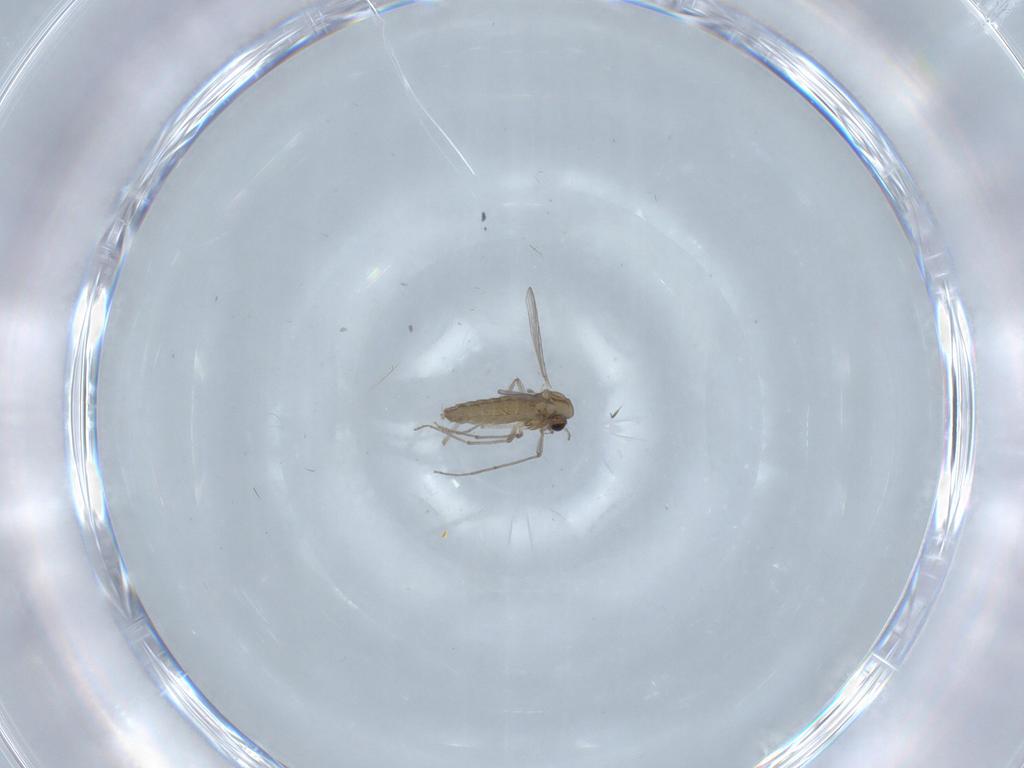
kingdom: Animalia
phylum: Arthropoda
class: Insecta
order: Diptera
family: Chironomidae
